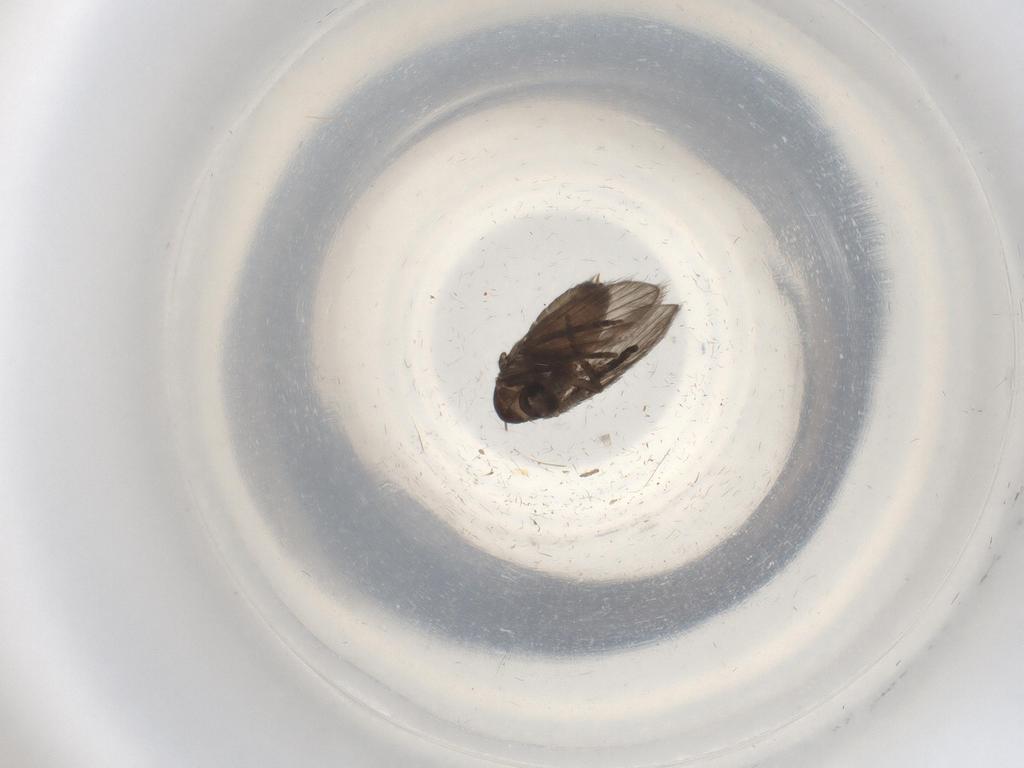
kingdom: Animalia
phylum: Arthropoda
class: Insecta
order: Diptera
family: Psychodidae
